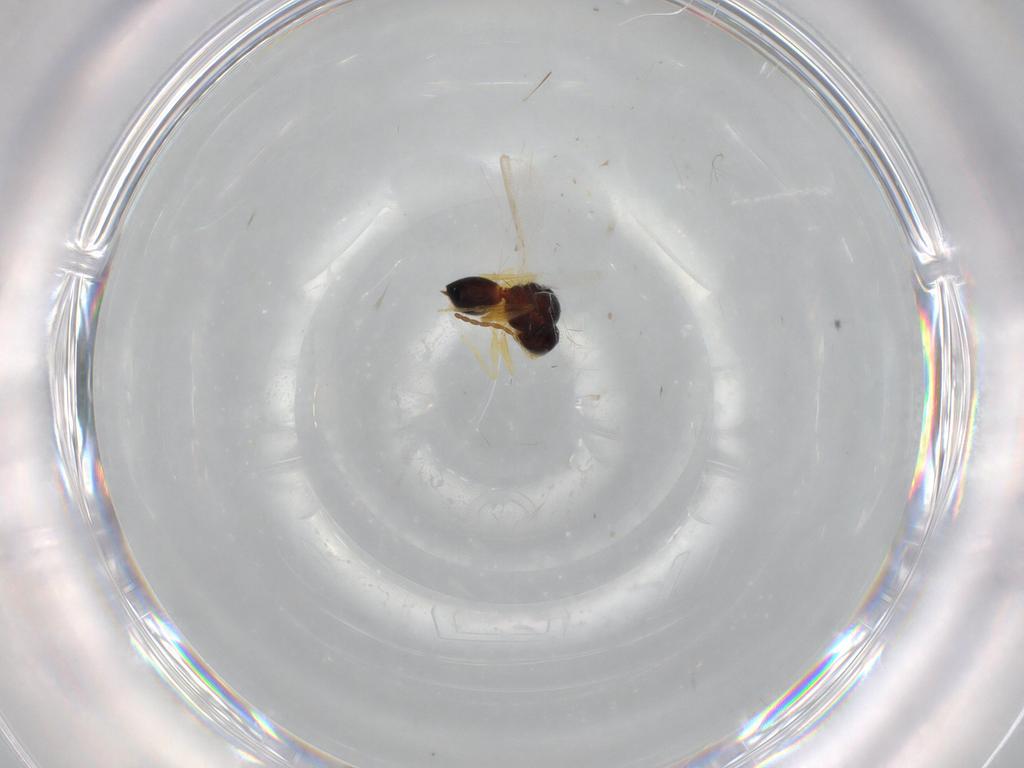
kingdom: Animalia
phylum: Arthropoda
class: Insecta
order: Hymenoptera
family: Figitidae
